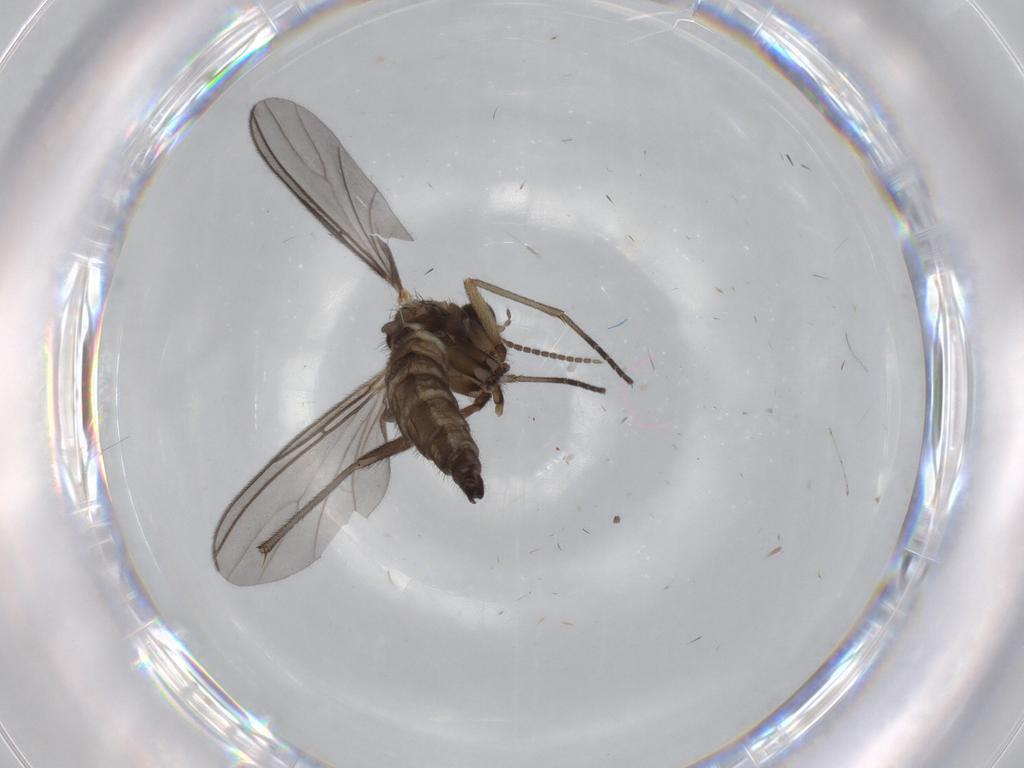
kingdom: Animalia
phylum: Arthropoda
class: Insecta
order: Diptera
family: Sciaridae
